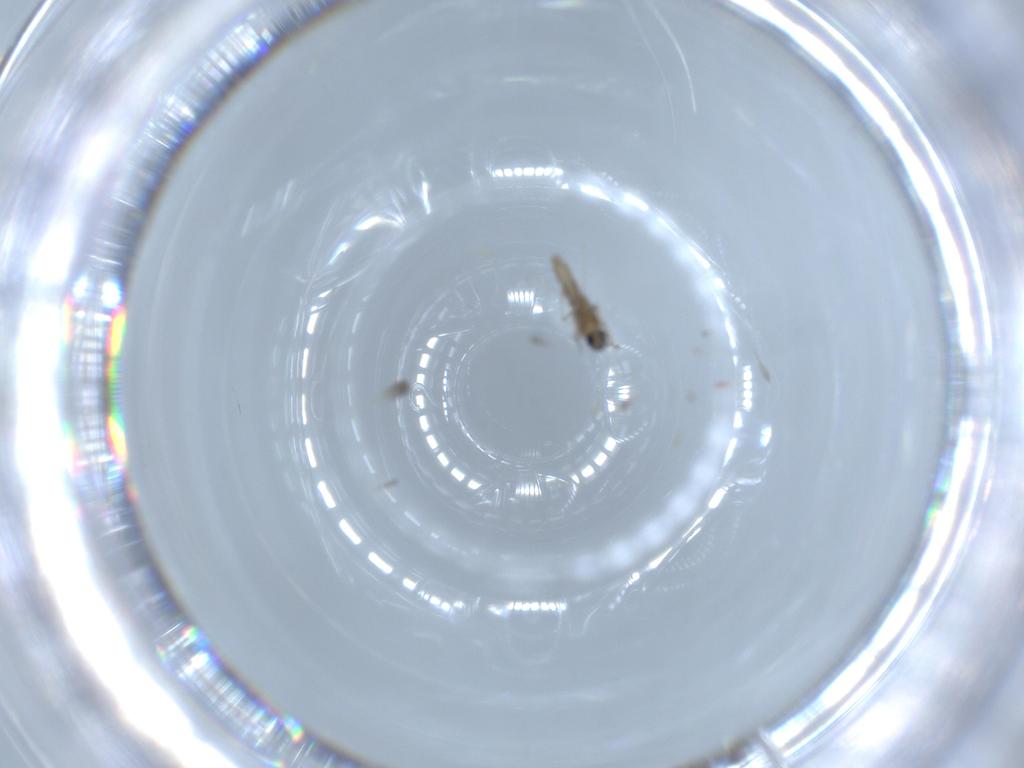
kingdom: Animalia
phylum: Arthropoda
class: Insecta
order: Diptera
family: Cecidomyiidae
